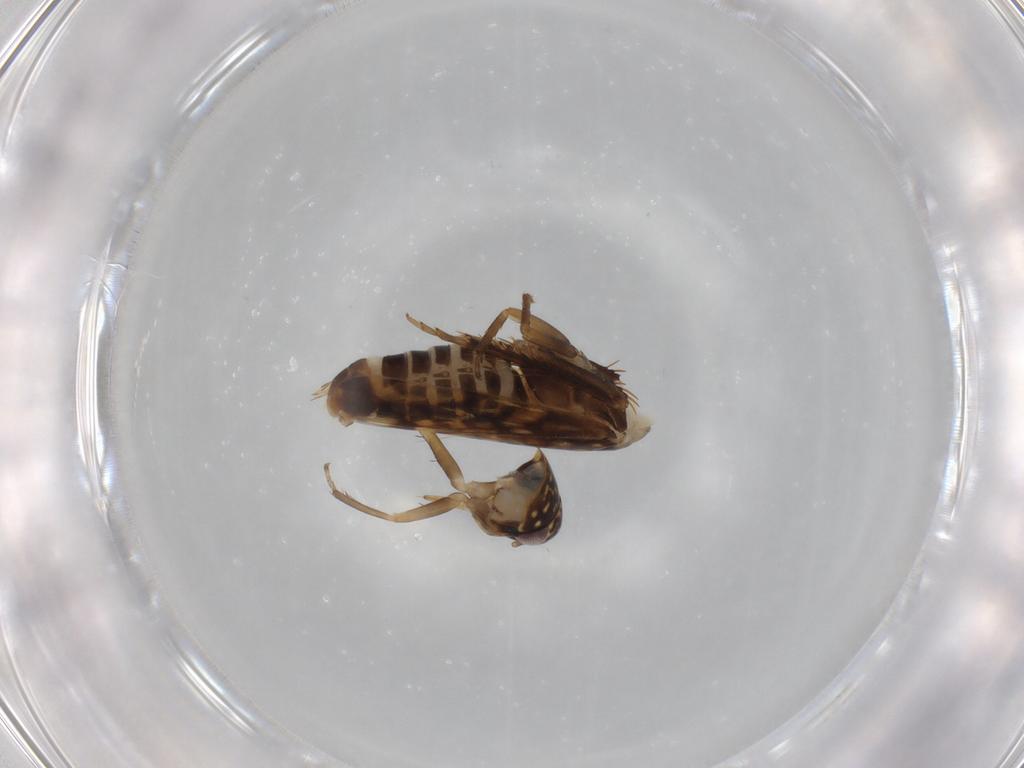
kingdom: Animalia
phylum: Arthropoda
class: Insecta
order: Hemiptera
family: Cicadellidae
